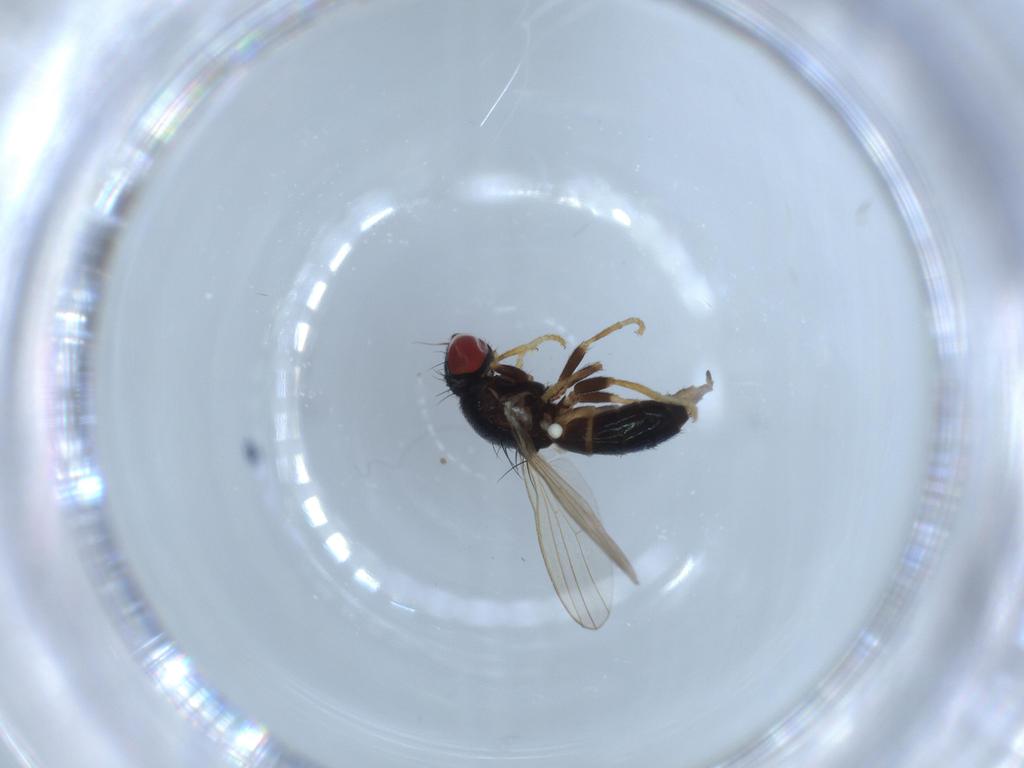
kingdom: Animalia
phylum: Arthropoda
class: Insecta
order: Diptera
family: Chamaemyiidae
